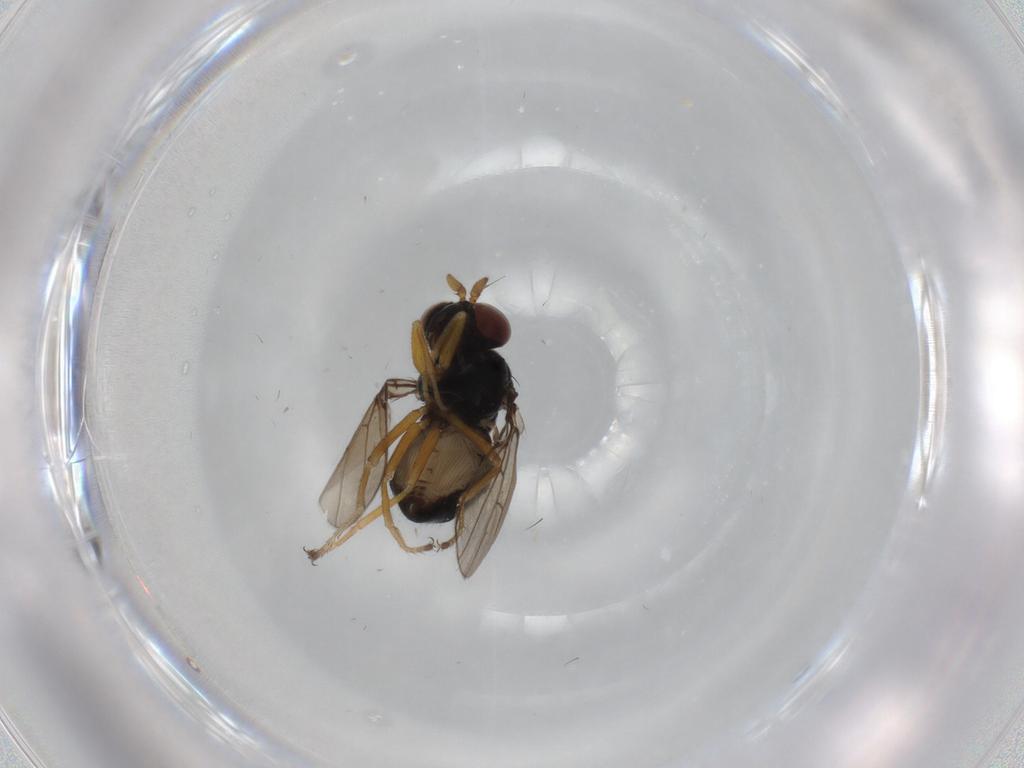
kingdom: Animalia
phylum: Arthropoda
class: Insecta
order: Diptera
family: Ephydridae
